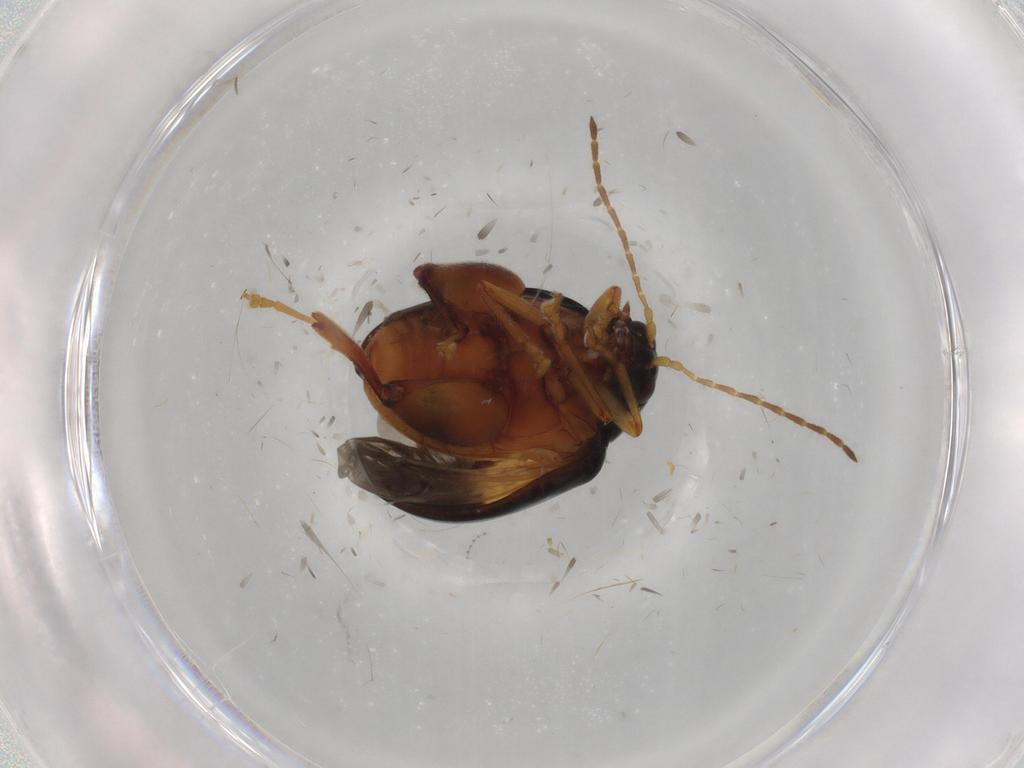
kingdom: Animalia
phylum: Arthropoda
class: Insecta
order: Coleoptera
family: Chrysomelidae
